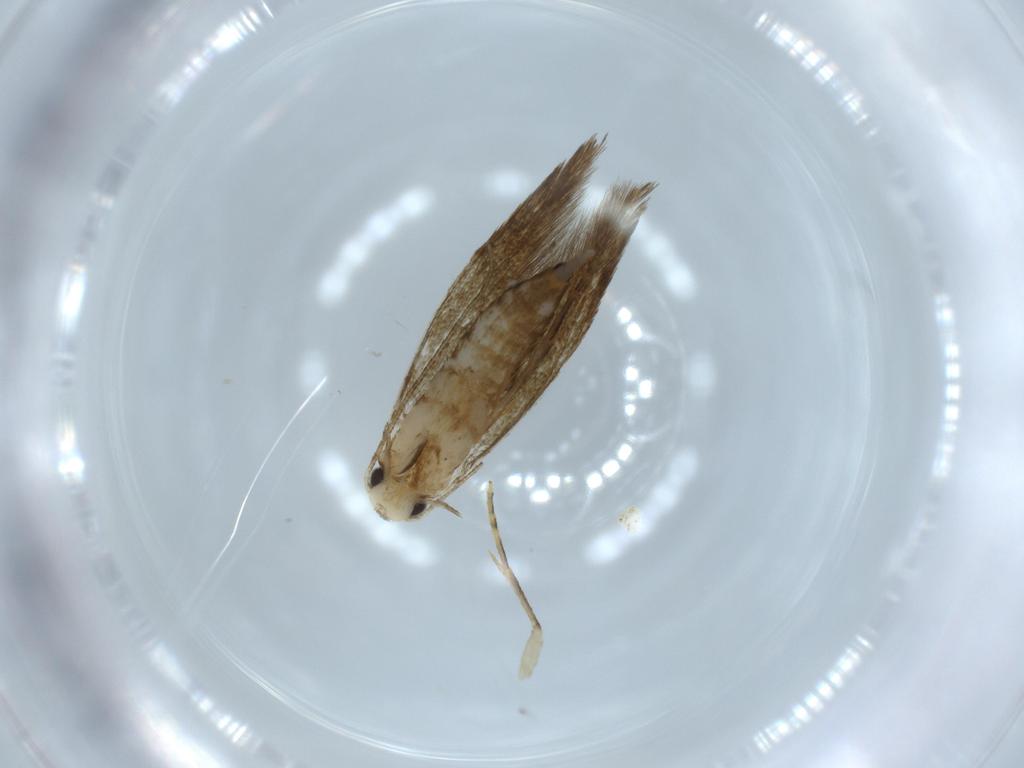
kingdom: Animalia
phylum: Arthropoda
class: Insecta
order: Lepidoptera
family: Tineidae
